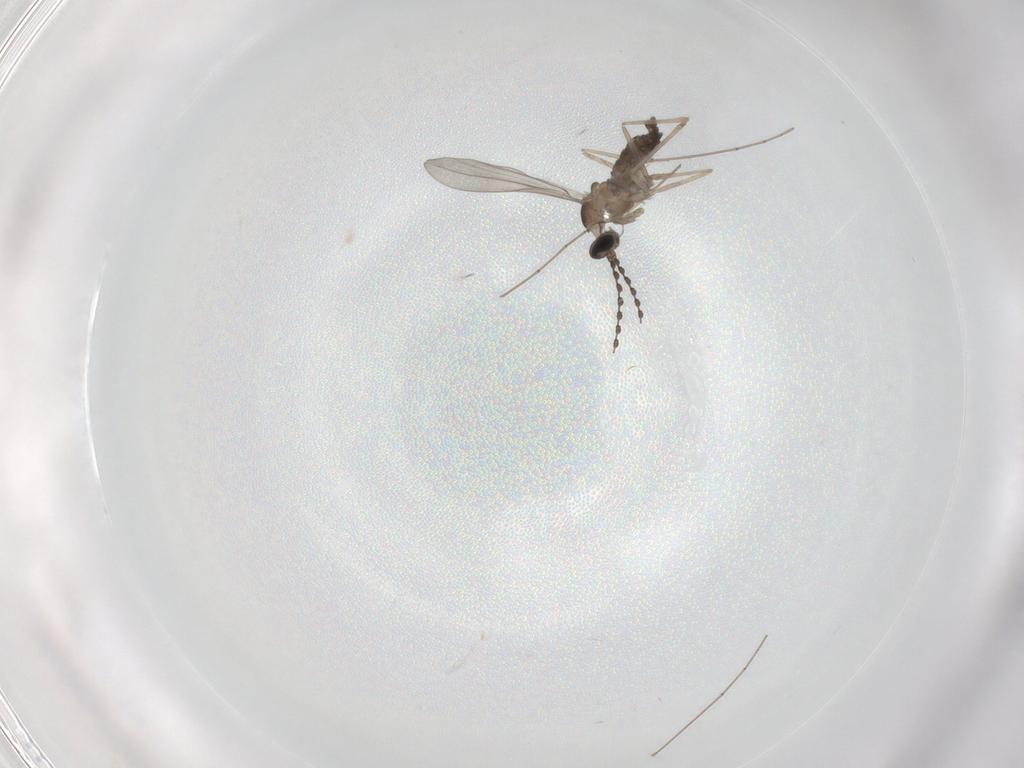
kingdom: Animalia
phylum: Arthropoda
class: Insecta
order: Diptera
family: Cecidomyiidae
